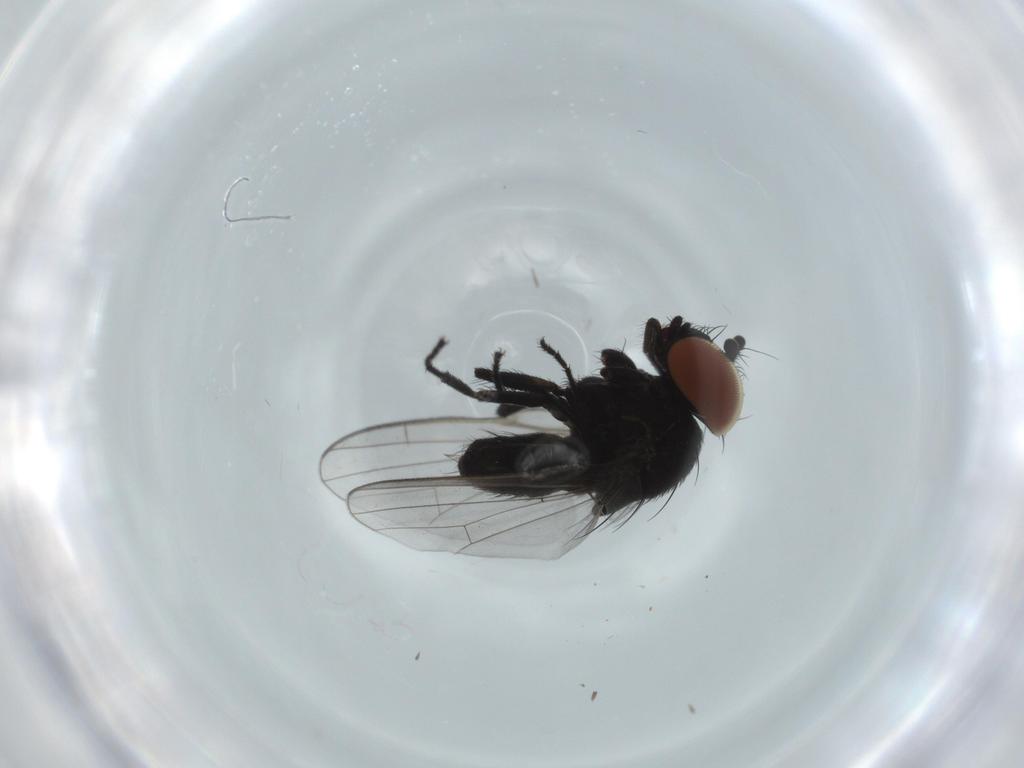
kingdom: Animalia
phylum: Arthropoda
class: Insecta
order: Diptera
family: Milichiidae
